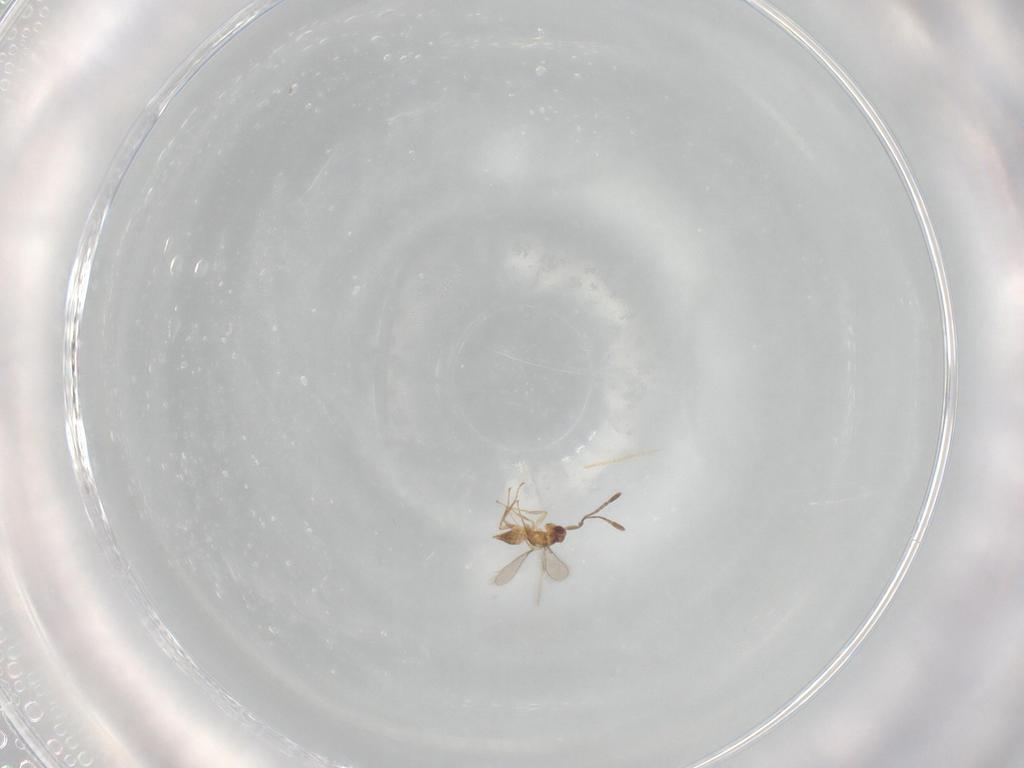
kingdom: Animalia
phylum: Arthropoda
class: Insecta
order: Hymenoptera
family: Mymaridae
